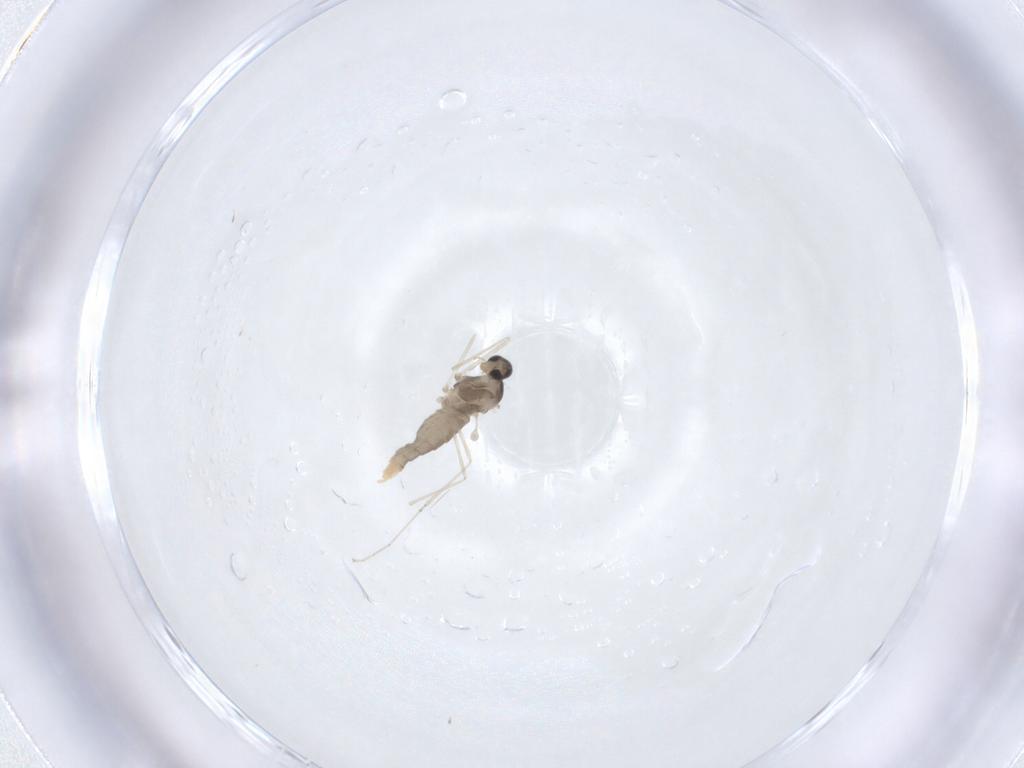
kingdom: Animalia
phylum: Arthropoda
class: Insecta
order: Diptera
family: Cecidomyiidae
